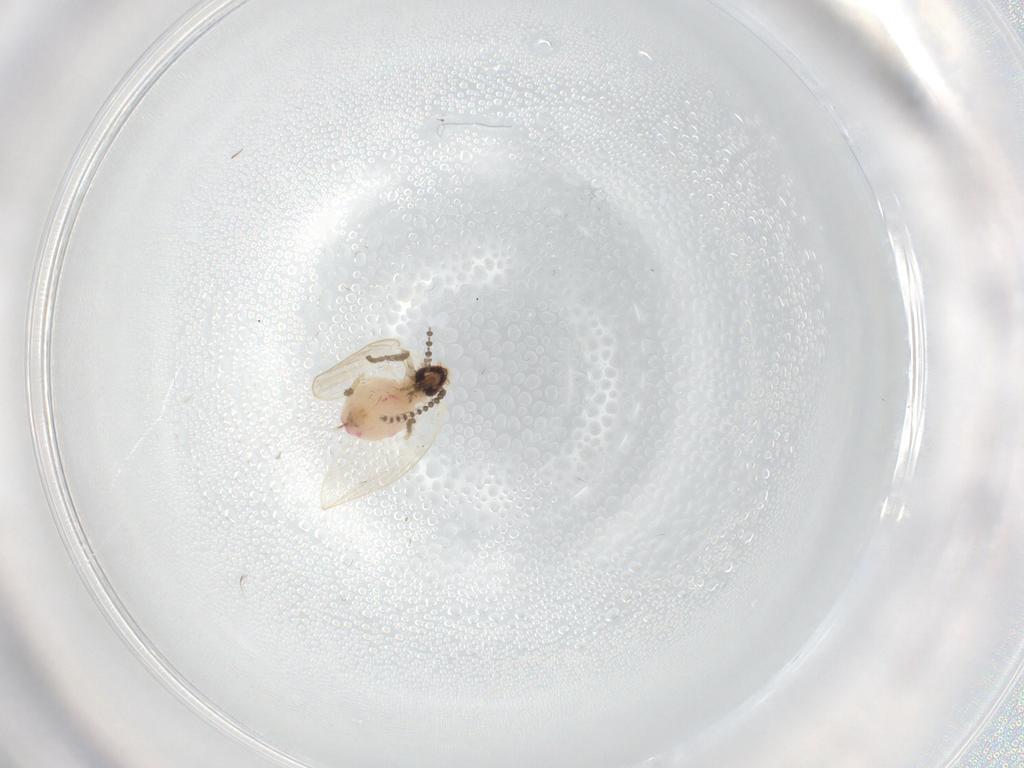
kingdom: Animalia
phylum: Arthropoda
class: Insecta
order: Diptera
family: Psychodidae
